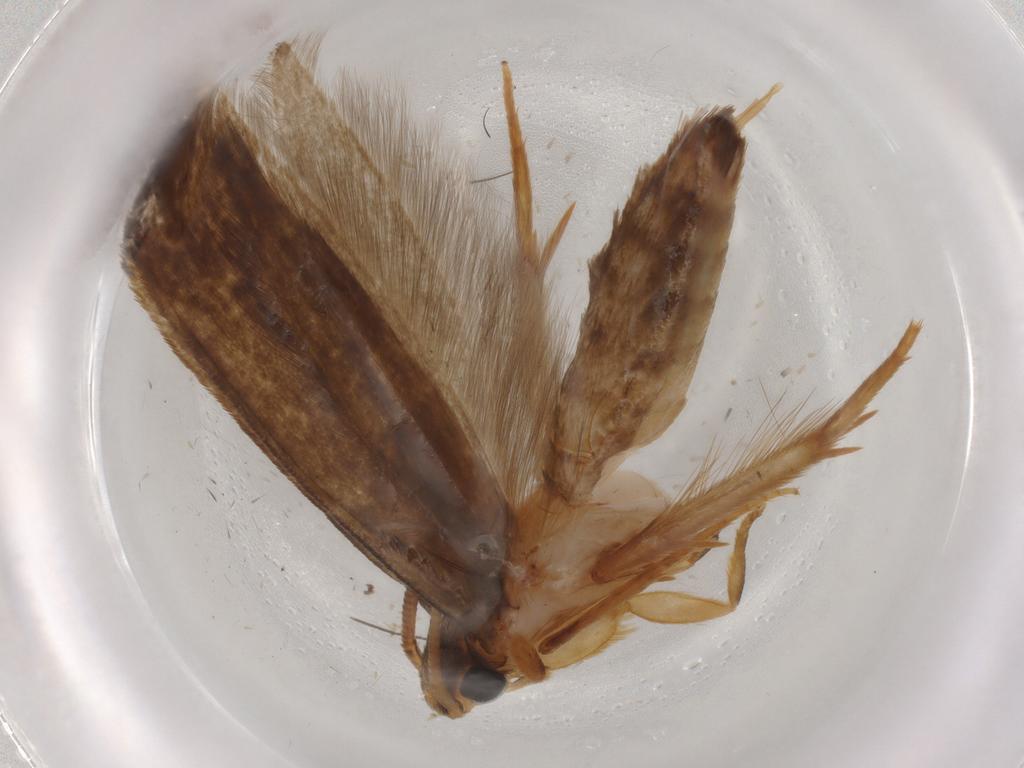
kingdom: Animalia
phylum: Arthropoda
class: Insecta
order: Lepidoptera
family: Tineidae
